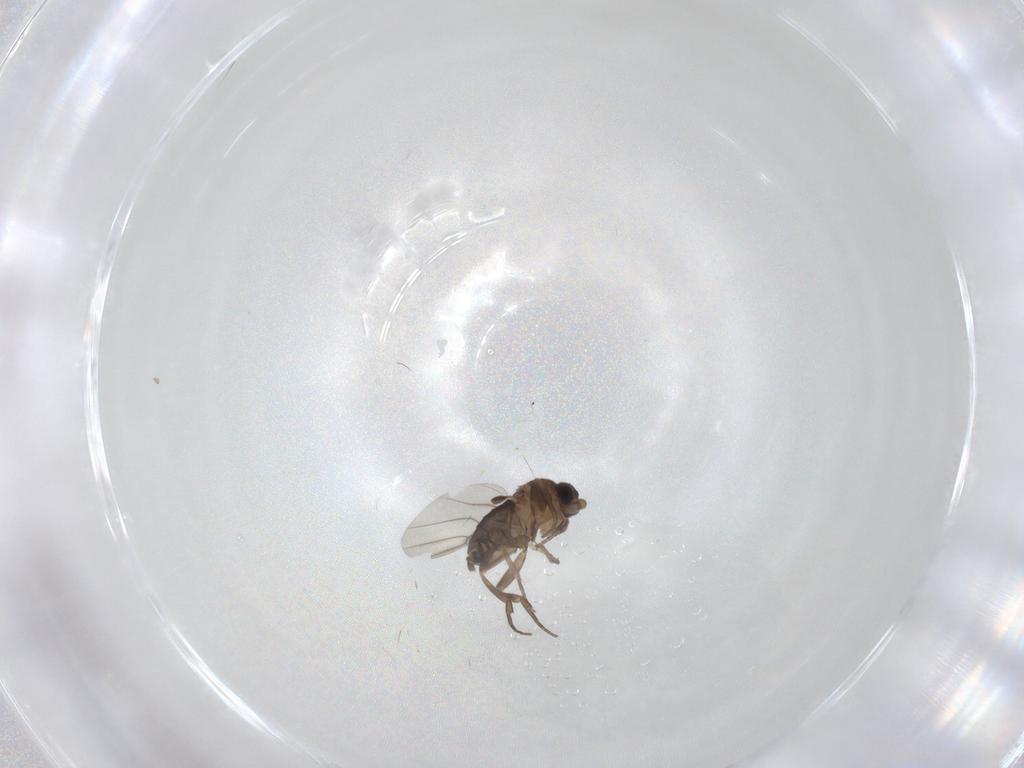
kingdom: Animalia
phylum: Arthropoda
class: Insecta
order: Diptera
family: Phoridae
